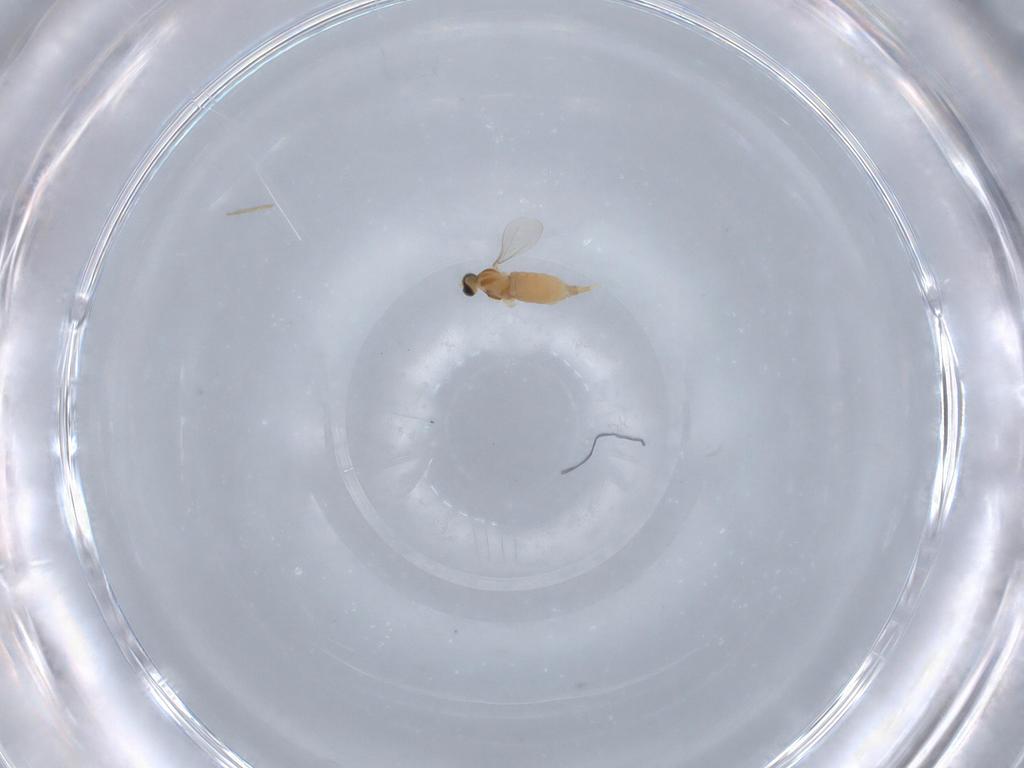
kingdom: Animalia
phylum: Arthropoda
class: Insecta
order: Diptera
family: Cecidomyiidae
